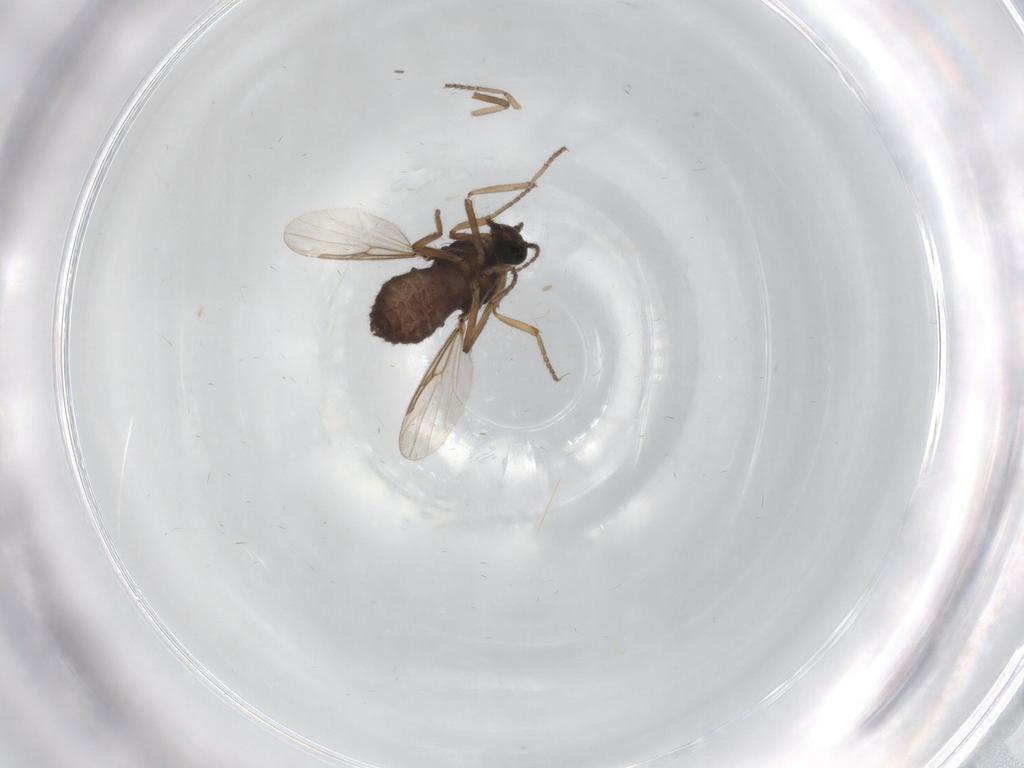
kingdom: Animalia
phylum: Arthropoda
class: Insecta
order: Diptera
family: Ceratopogonidae
